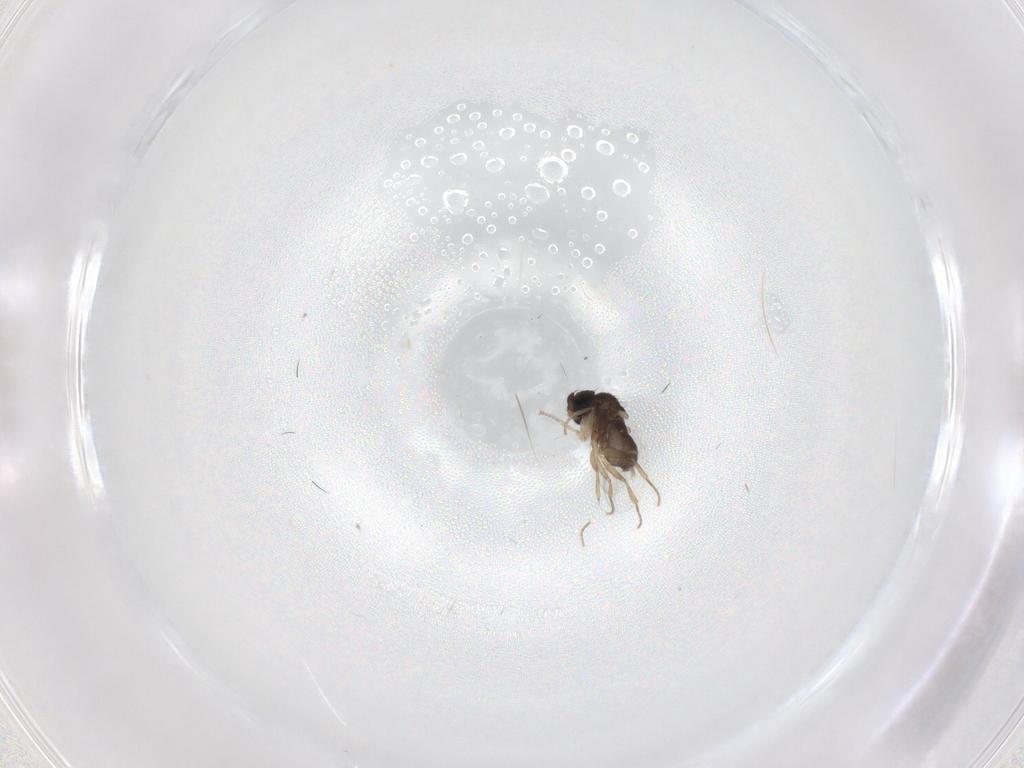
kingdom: Animalia
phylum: Arthropoda
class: Insecta
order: Diptera
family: Phoridae
